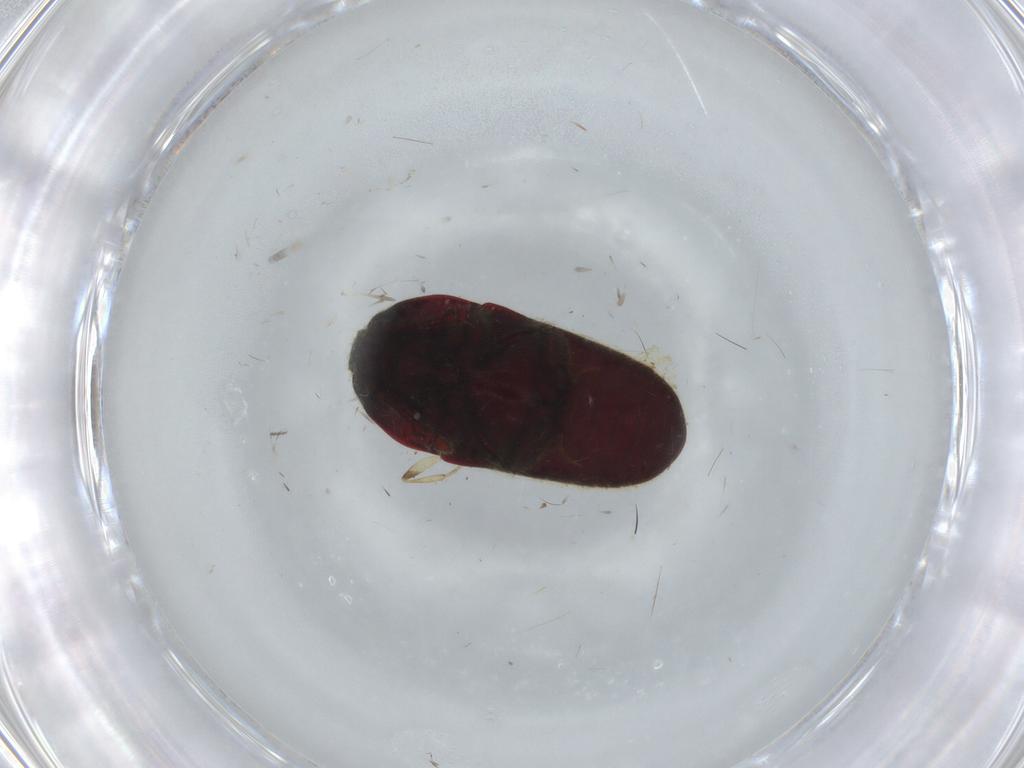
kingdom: Animalia
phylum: Arthropoda
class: Insecta
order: Coleoptera
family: Throscidae
